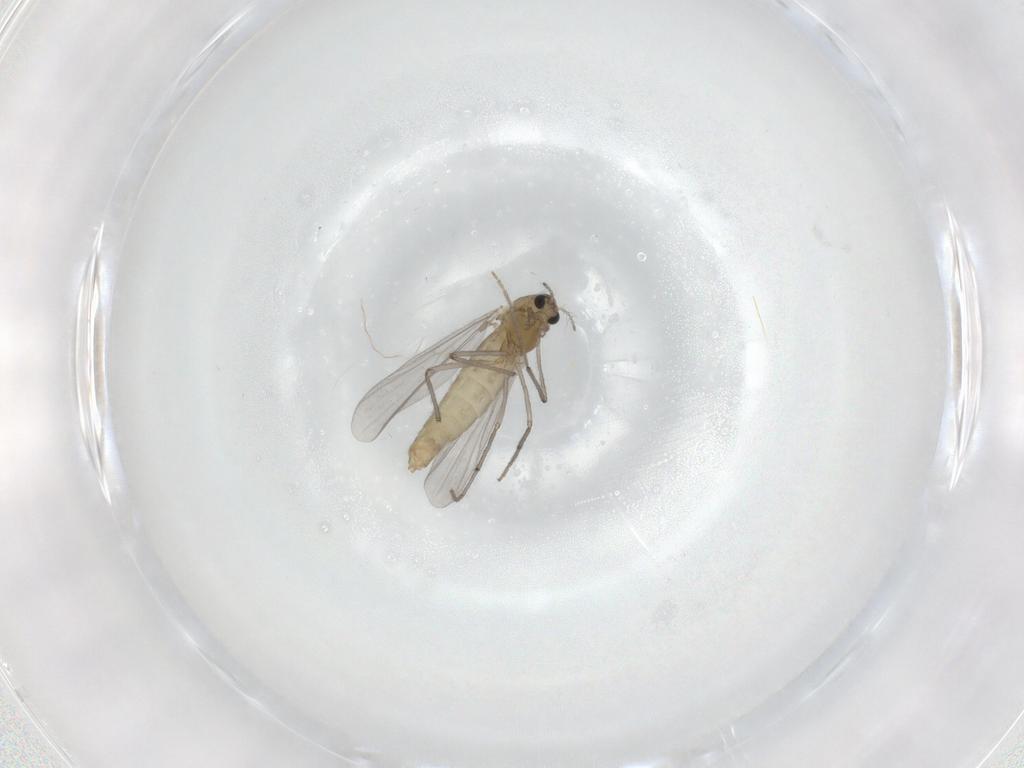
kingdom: Animalia
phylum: Arthropoda
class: Insecta
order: Diptera
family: Chironomidae
